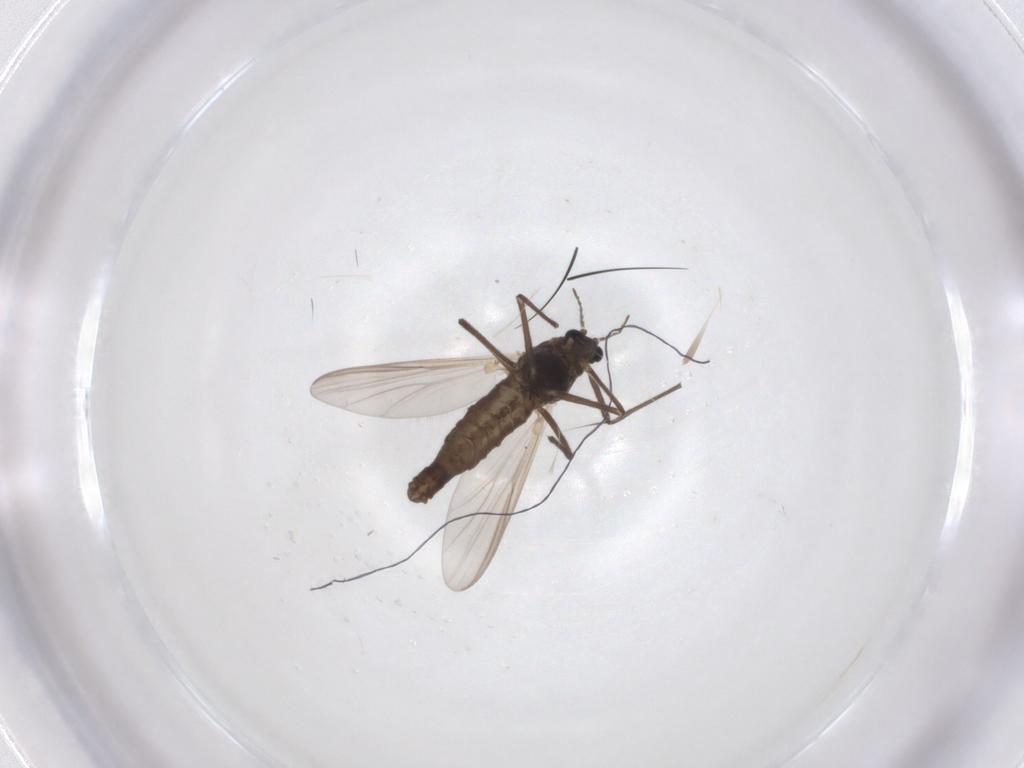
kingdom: Animalia
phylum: Arthropoda
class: Insecta
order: Diptera
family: Chironomidae
